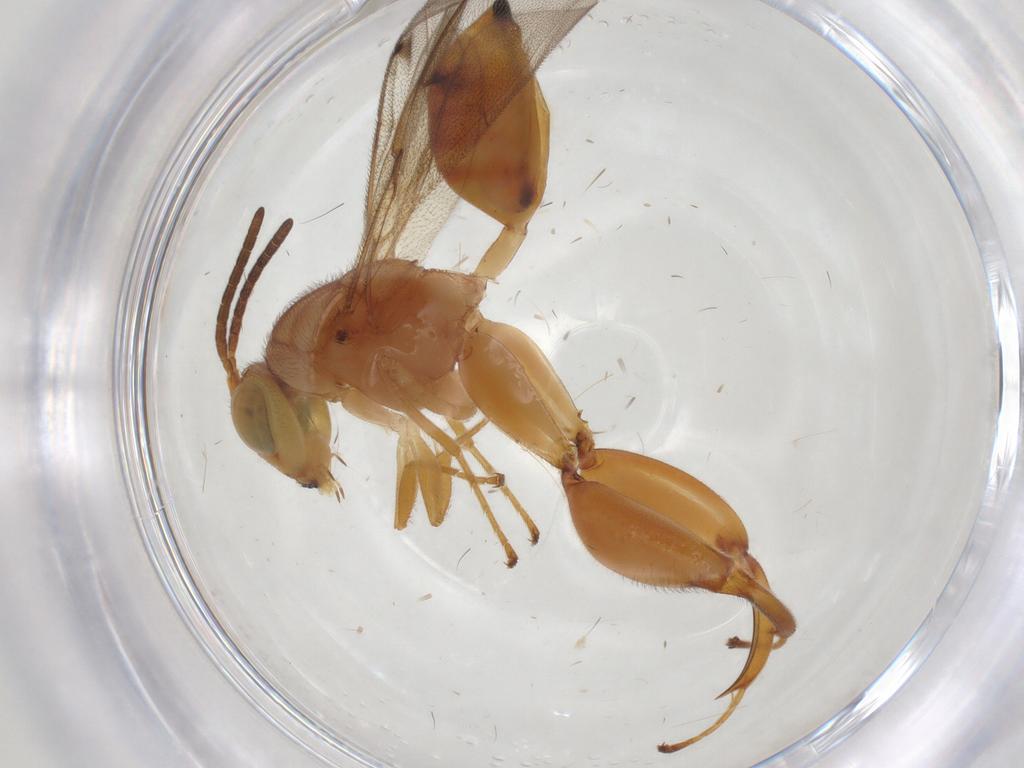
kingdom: Animalia
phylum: Arthropoda
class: Insecta
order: Hymenoptera
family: Chalcididae
